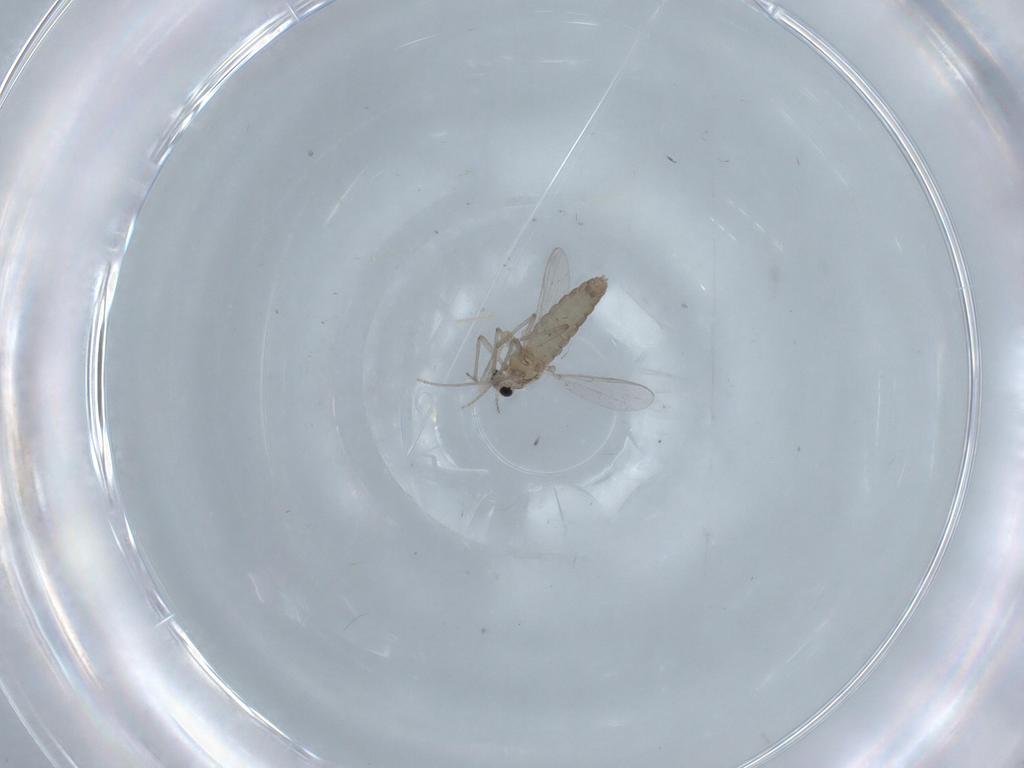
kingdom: Animalia
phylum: Arthropoda
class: Insecta
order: Diptera
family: Chironomidae
